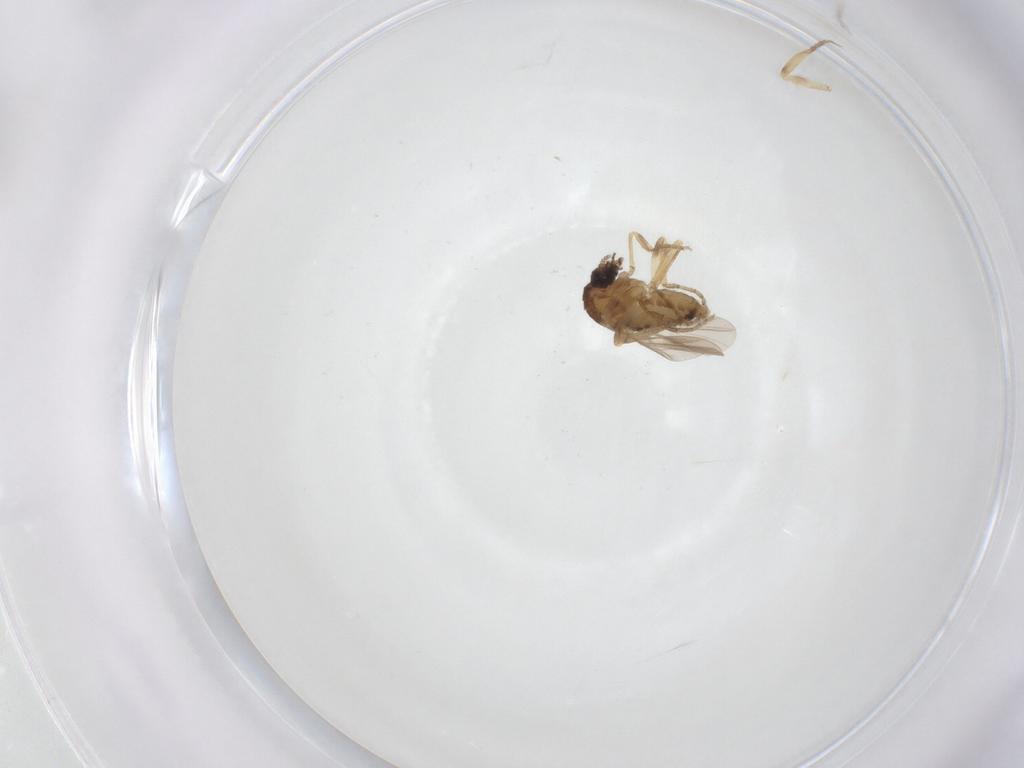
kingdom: Animalia
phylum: Arthropoda
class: Insecta
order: Diptera
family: Ceratopogonidae
